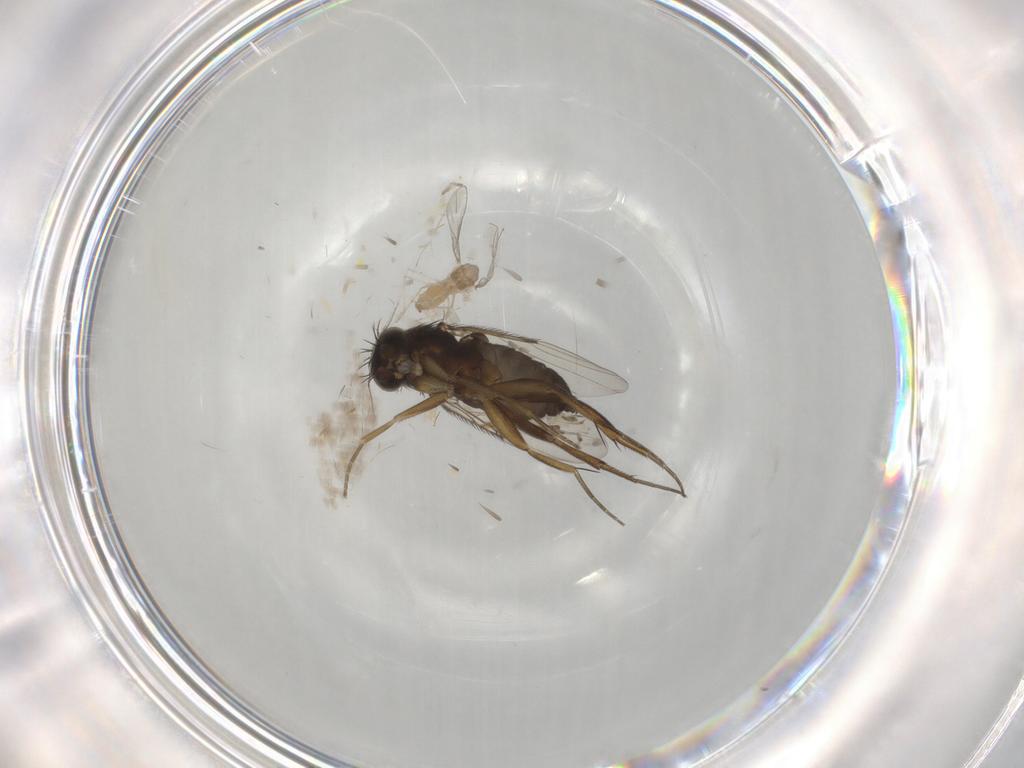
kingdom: Animalia
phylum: Arthropoda
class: Insecta
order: Diptera
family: Cecidomyiidae
